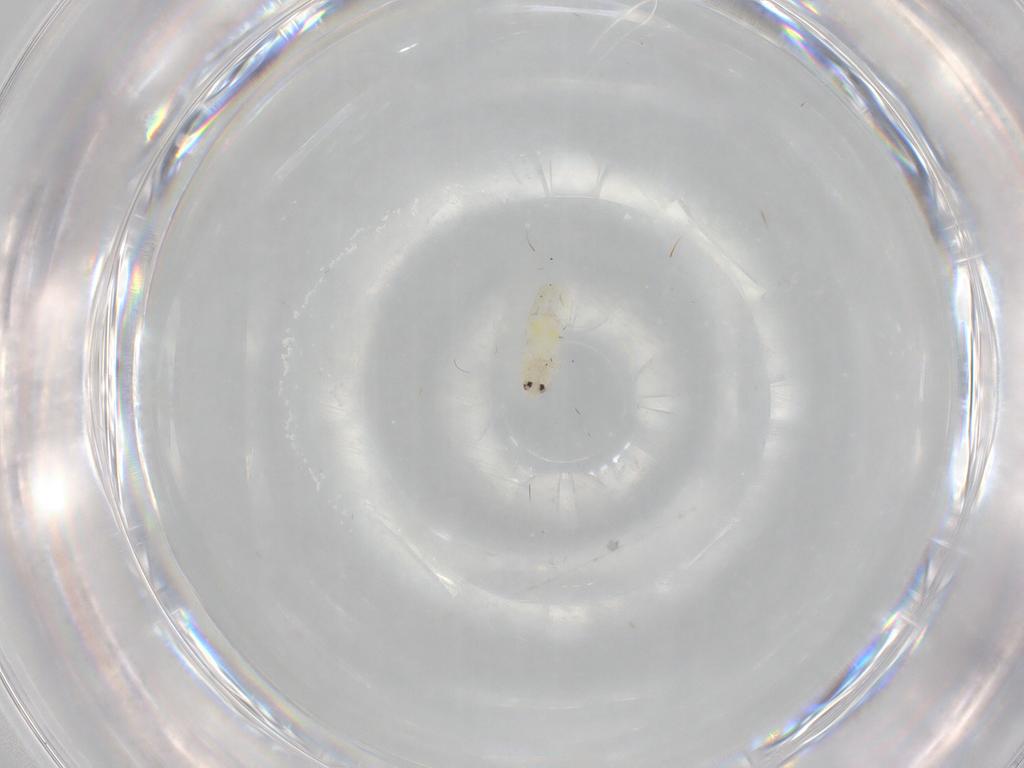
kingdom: Animalia
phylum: Arthropoda
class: Insecta
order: Hemiptera
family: Aleyrodidae
